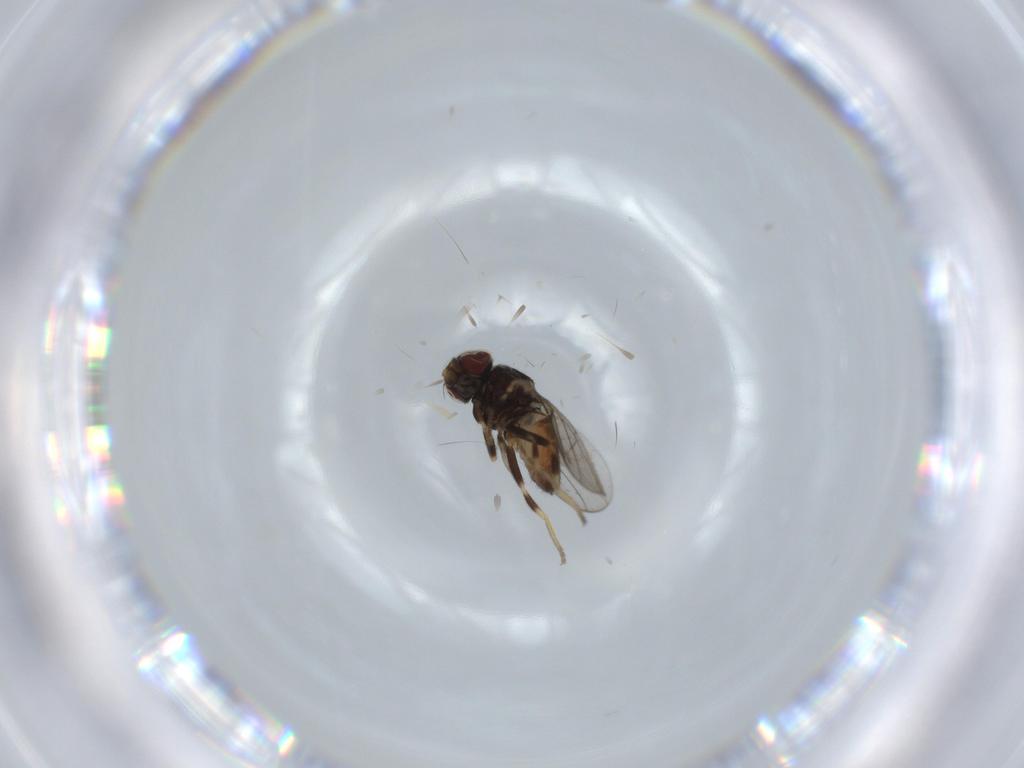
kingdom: Animalia
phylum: Arthropoda
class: Insecta
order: Diptera
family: Chloropidae
